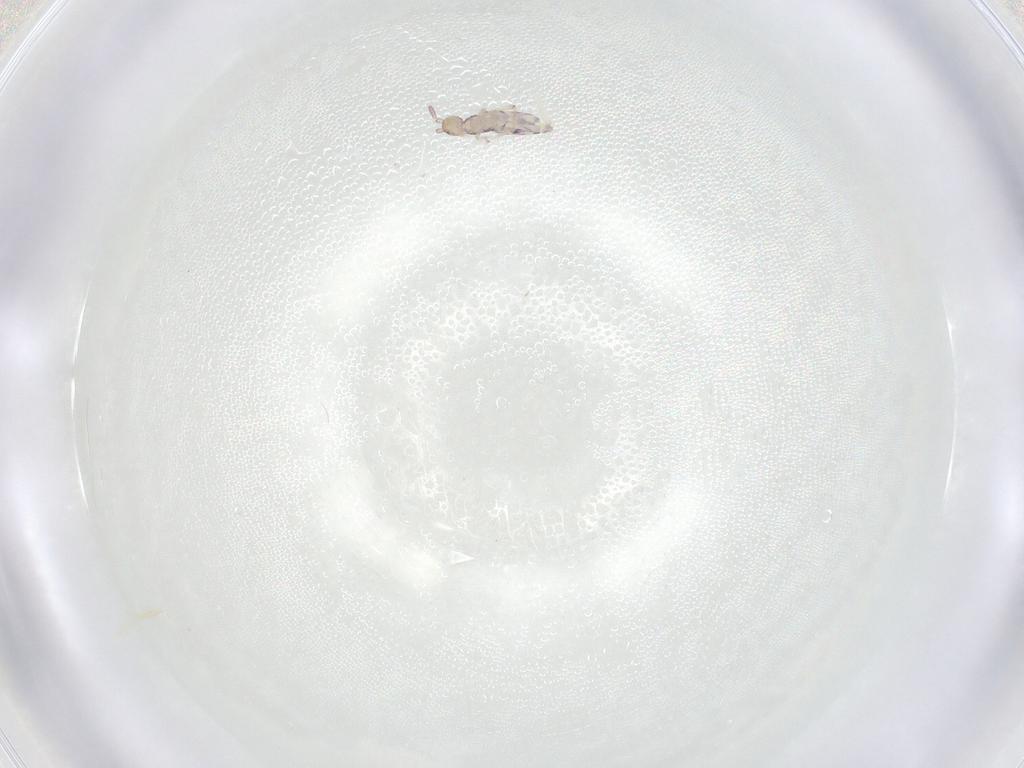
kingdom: Animalia
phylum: Arthropoda
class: Collembola
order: Entomobryomorpha
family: Entomobryidae
